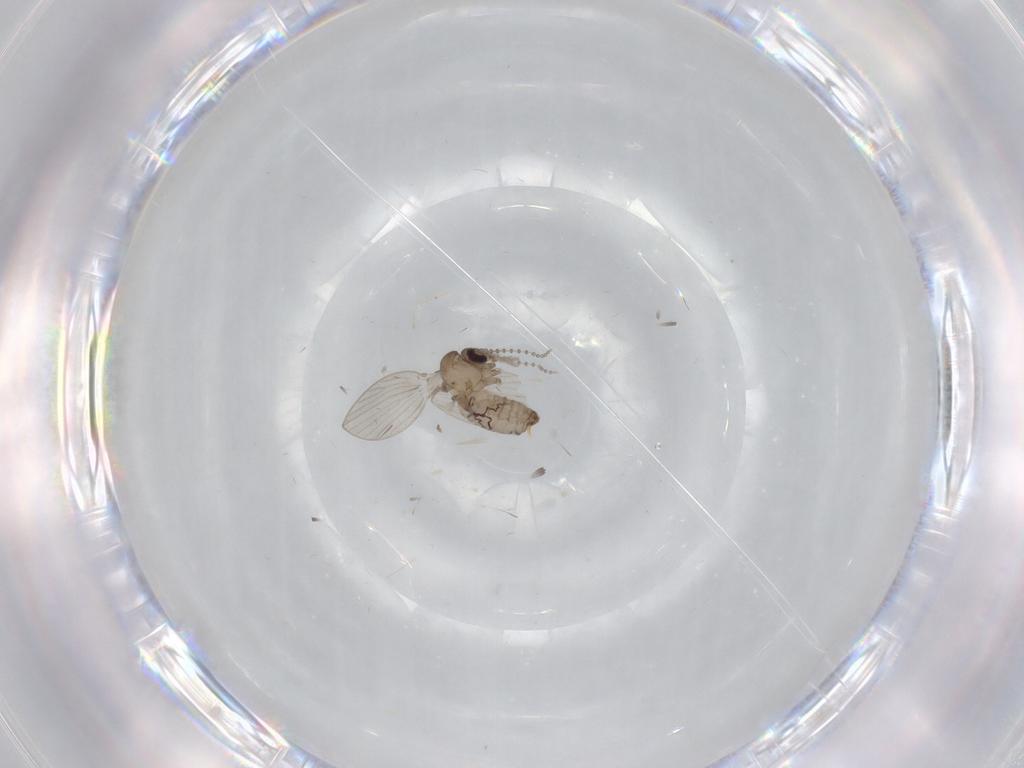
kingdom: Animalia
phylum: Arthropoda
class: Insecta
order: Diptera
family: Psychodidae
